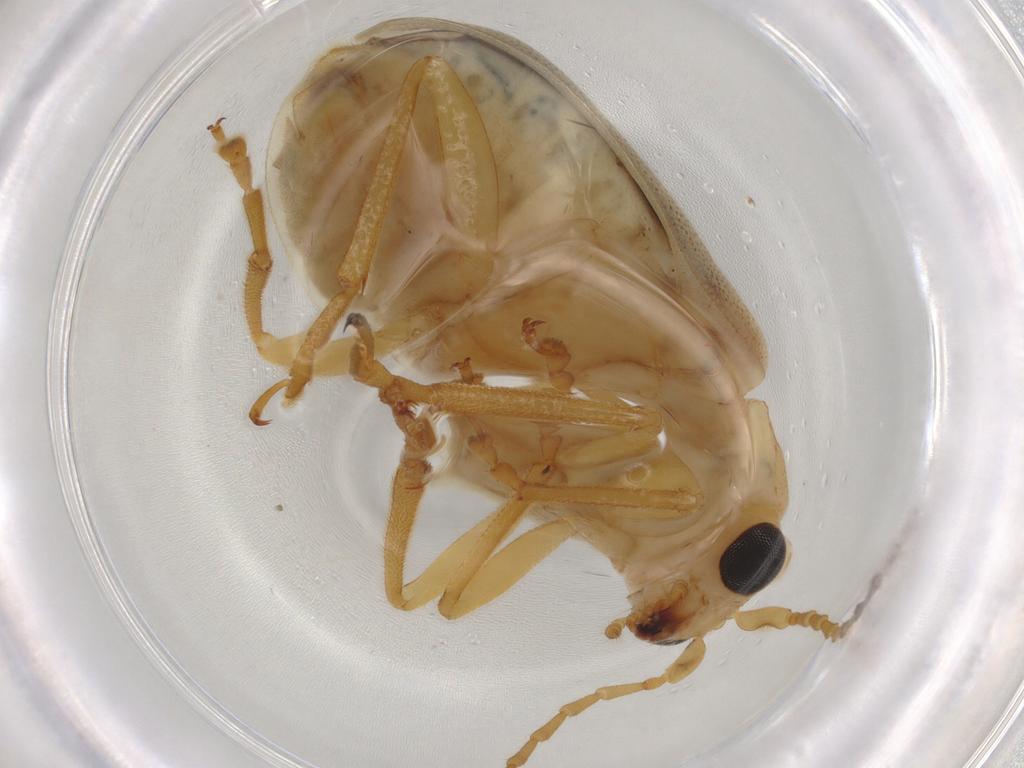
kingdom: Animalia
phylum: Arthropoda
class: Insecta
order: Coleoptera
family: Chrysomelidae
